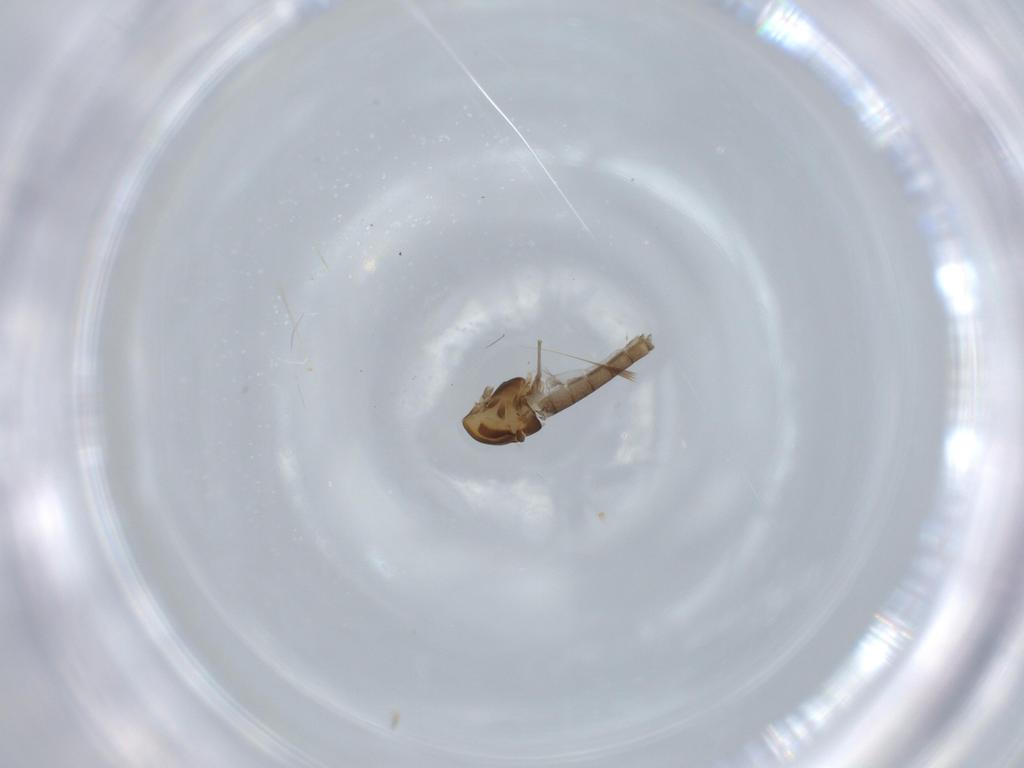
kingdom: Animalia
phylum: Arthropoda
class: Insecta
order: Diptera
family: Chironomidae
